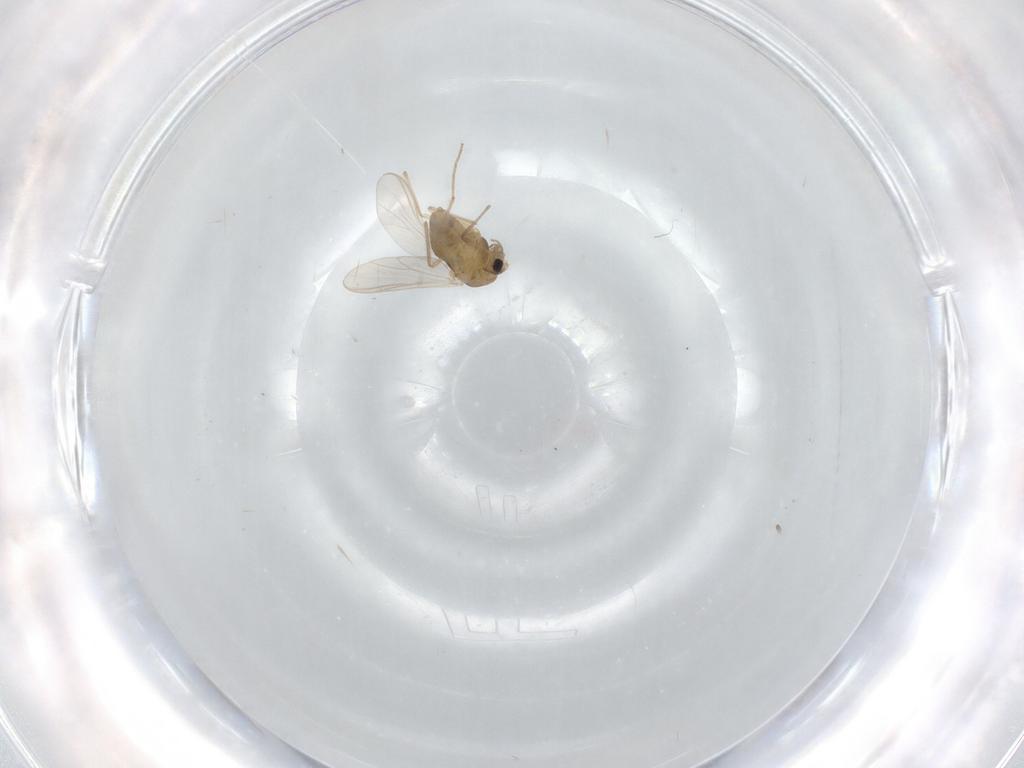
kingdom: Animalia
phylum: Arthropoda
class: Insecta
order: Diptera
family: Chironomidae
